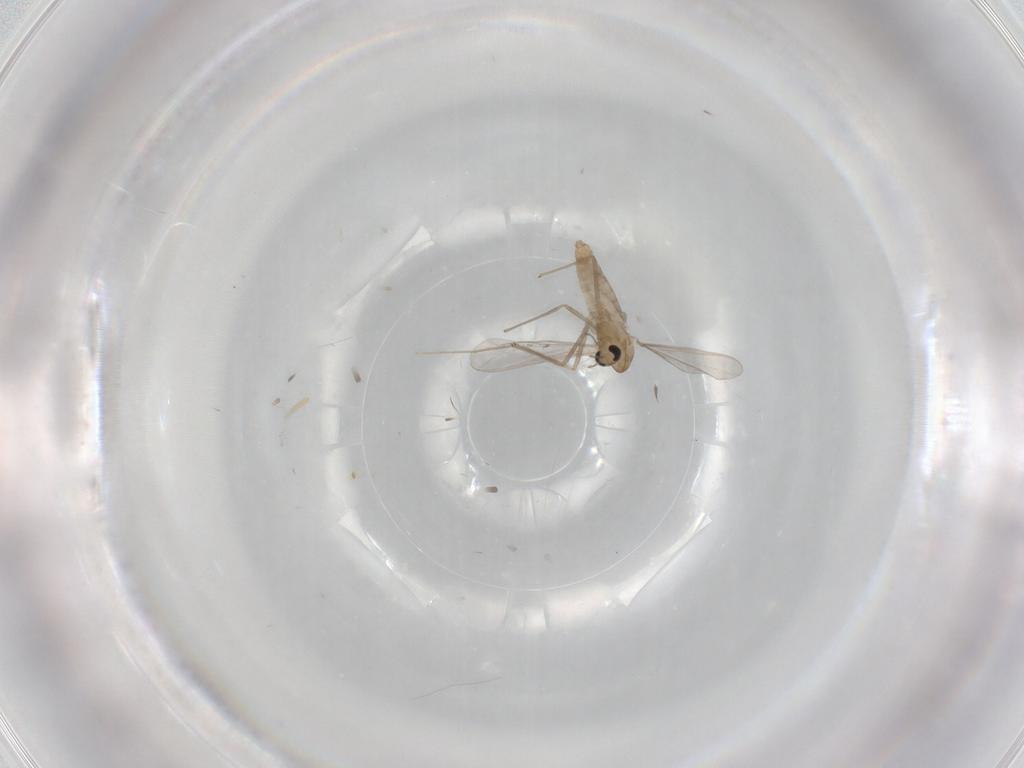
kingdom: Animalia
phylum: Arthropoda
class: Insecta
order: Diptera
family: Chironomidae
